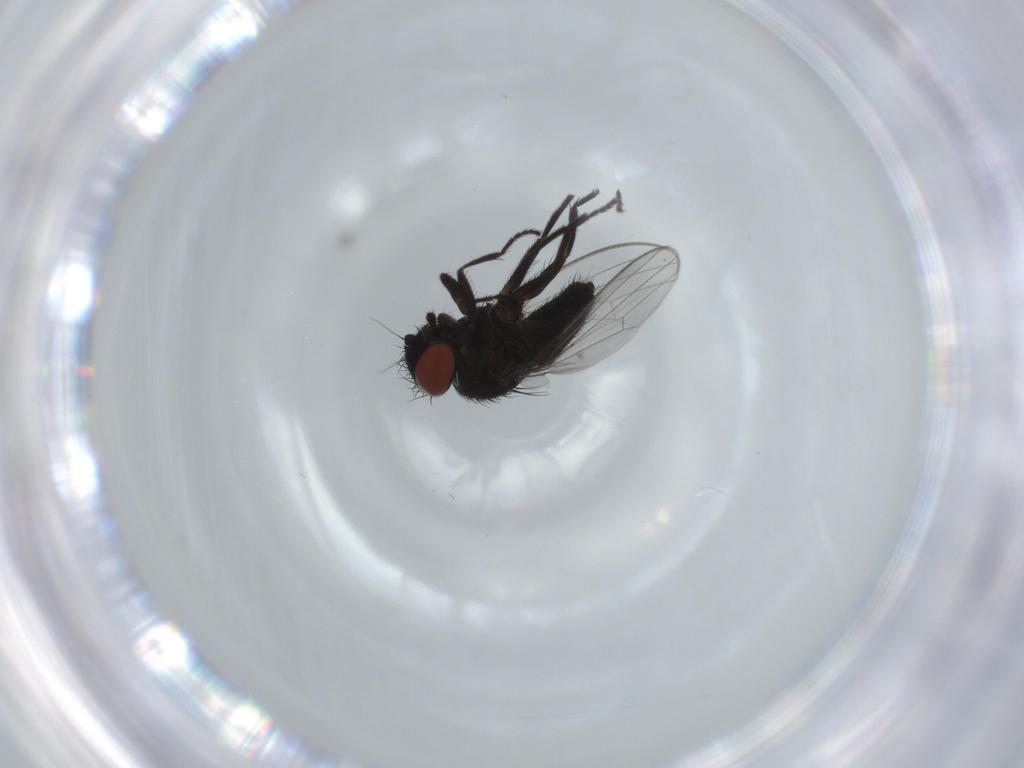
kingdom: Animalia
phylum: Arthropoda
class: Insecta
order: Diptera
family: Milichiidae
